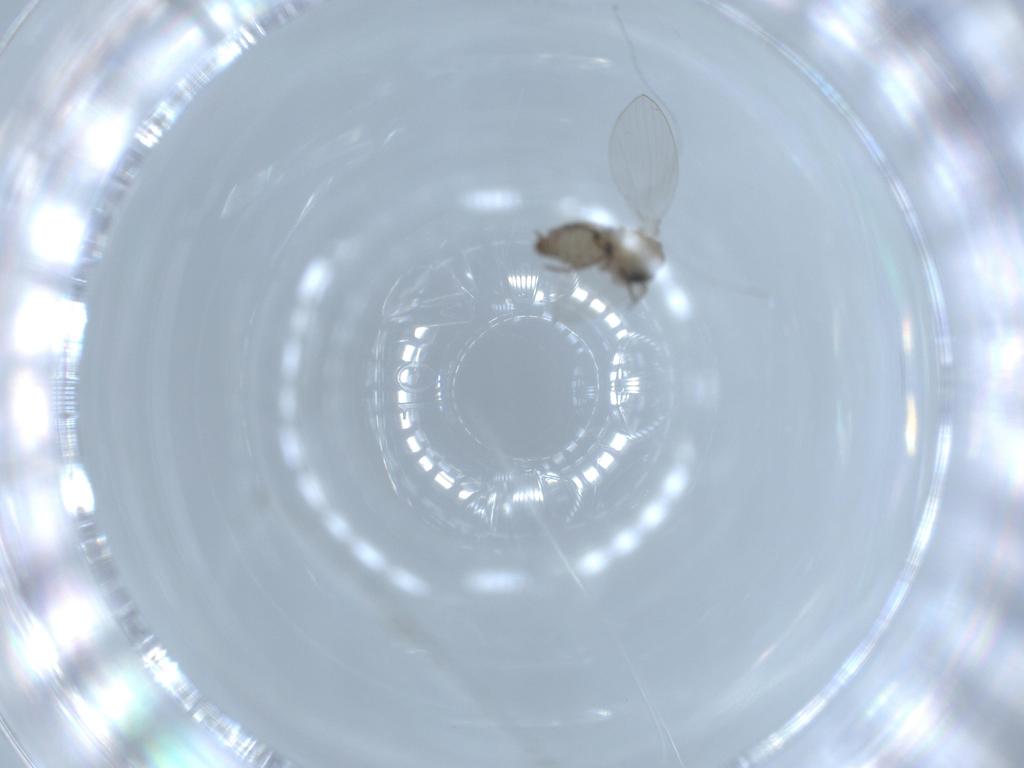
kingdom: Animalia
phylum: Arthropoda
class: Insecta
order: Diptera
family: Psychodidae
